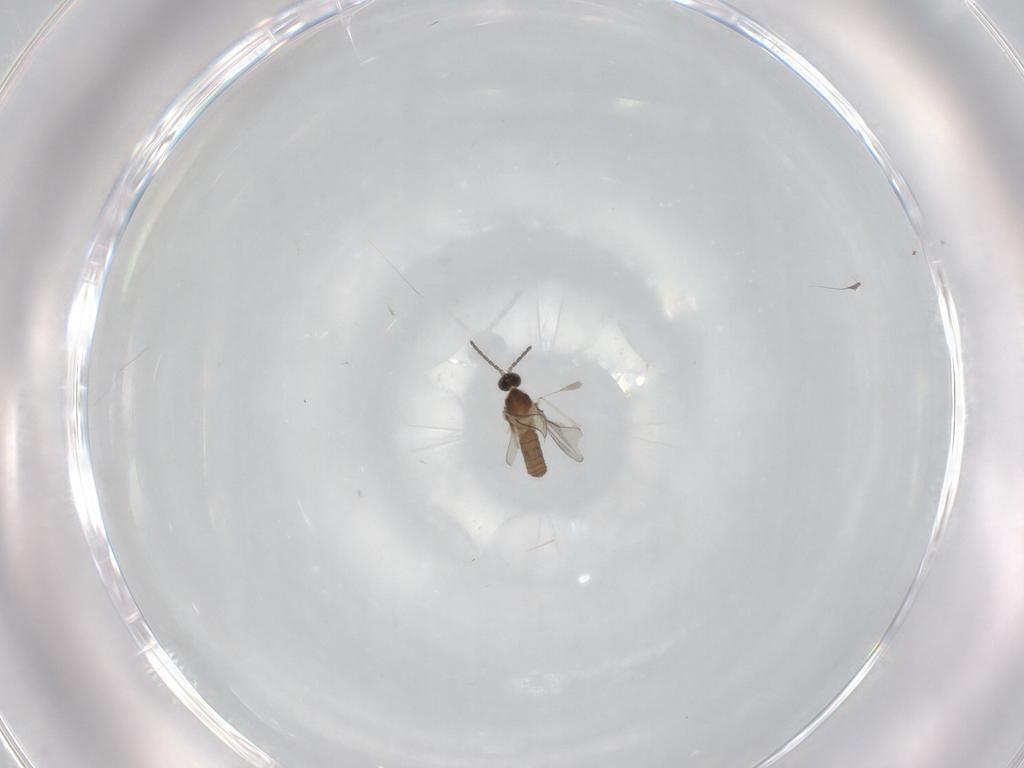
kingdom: Animalia
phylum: Arthropoda
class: Insecta
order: Diptera
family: Cecidomyiidae
